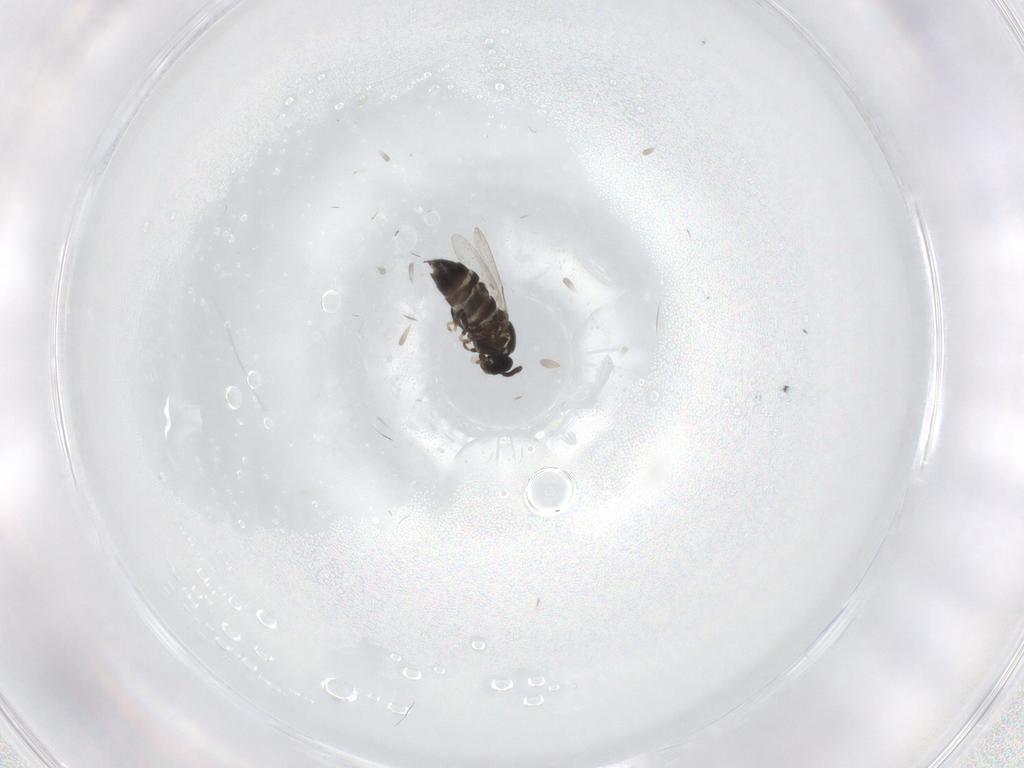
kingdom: Animalia
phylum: Arthropoda
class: Insecta
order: Diptera
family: Scatopsidae
